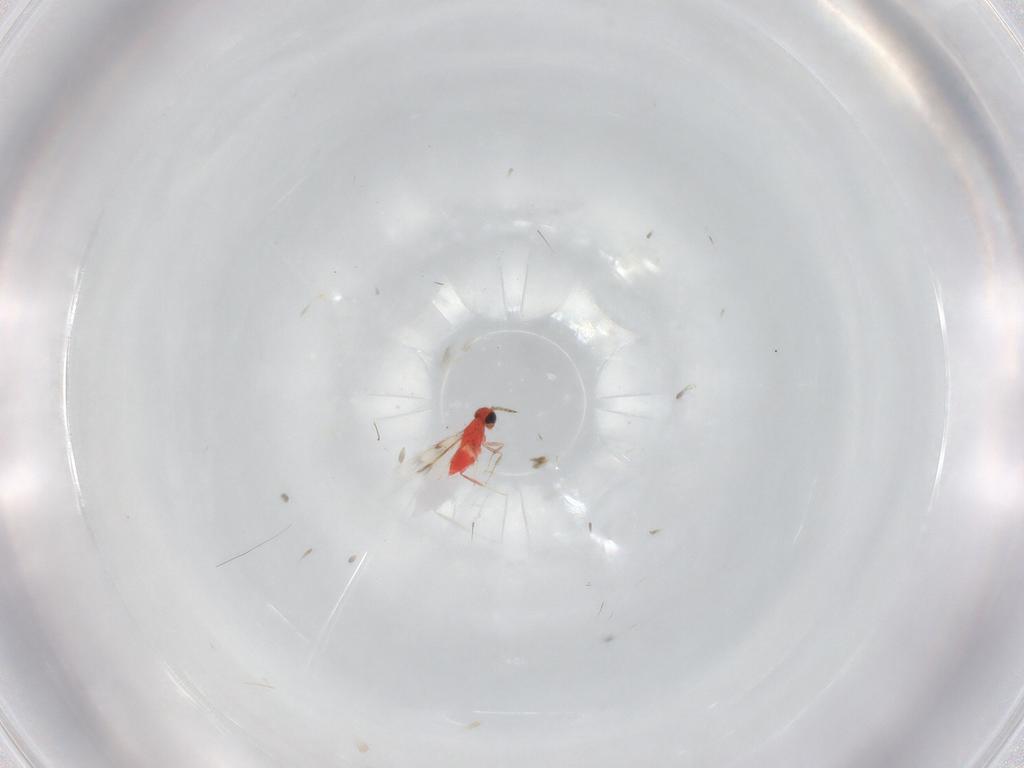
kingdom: Animalia
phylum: Arthropoda
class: Insecta
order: Hymenoptera
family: Trichogrammatidae
